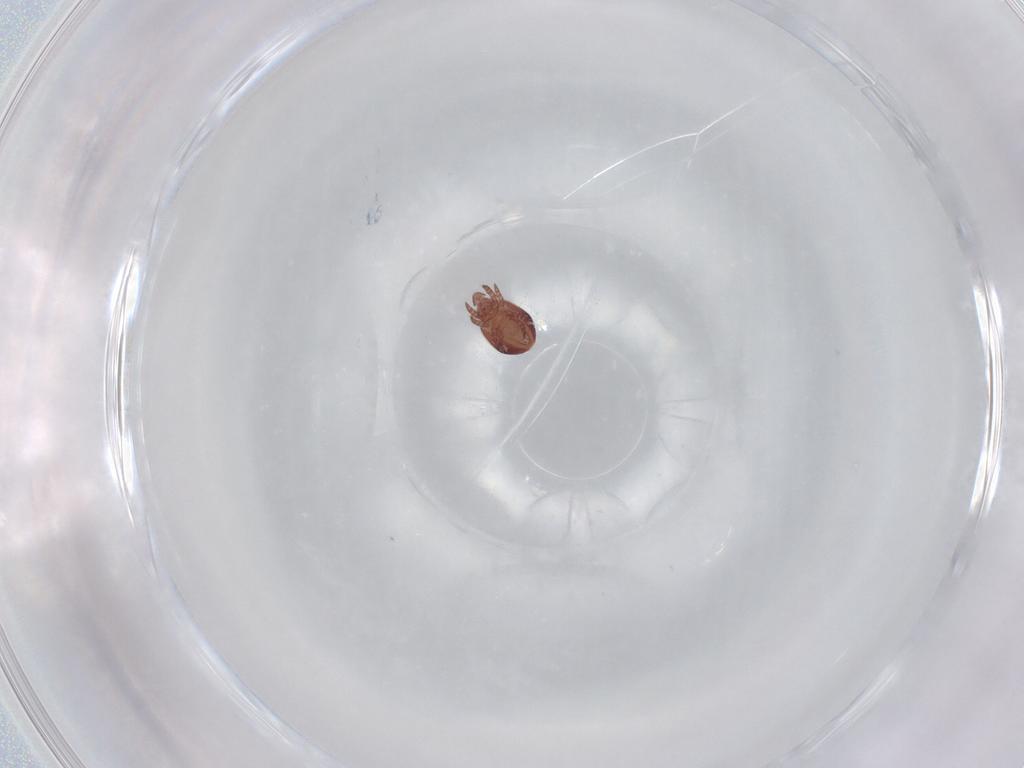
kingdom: Animalia
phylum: Arthropoda
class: Arachnida
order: Sarcoptiformes
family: Trhypochthoniidae
